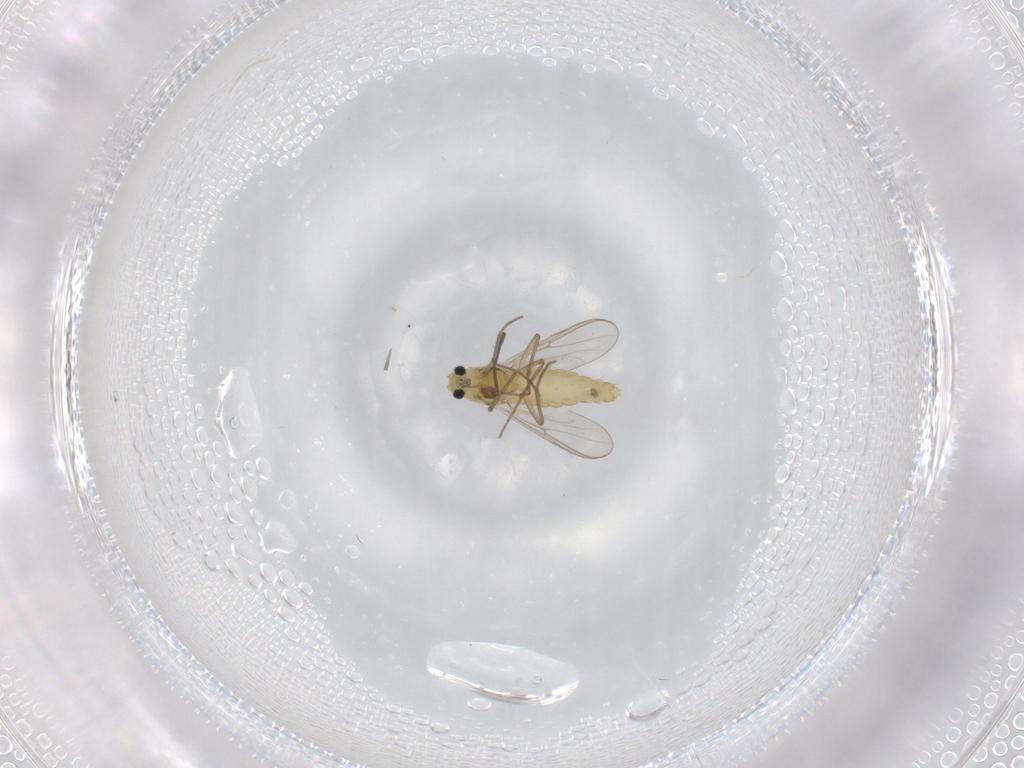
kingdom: Animalia
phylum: Arthropoda
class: Insecta
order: Diptera
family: Chironomidae
